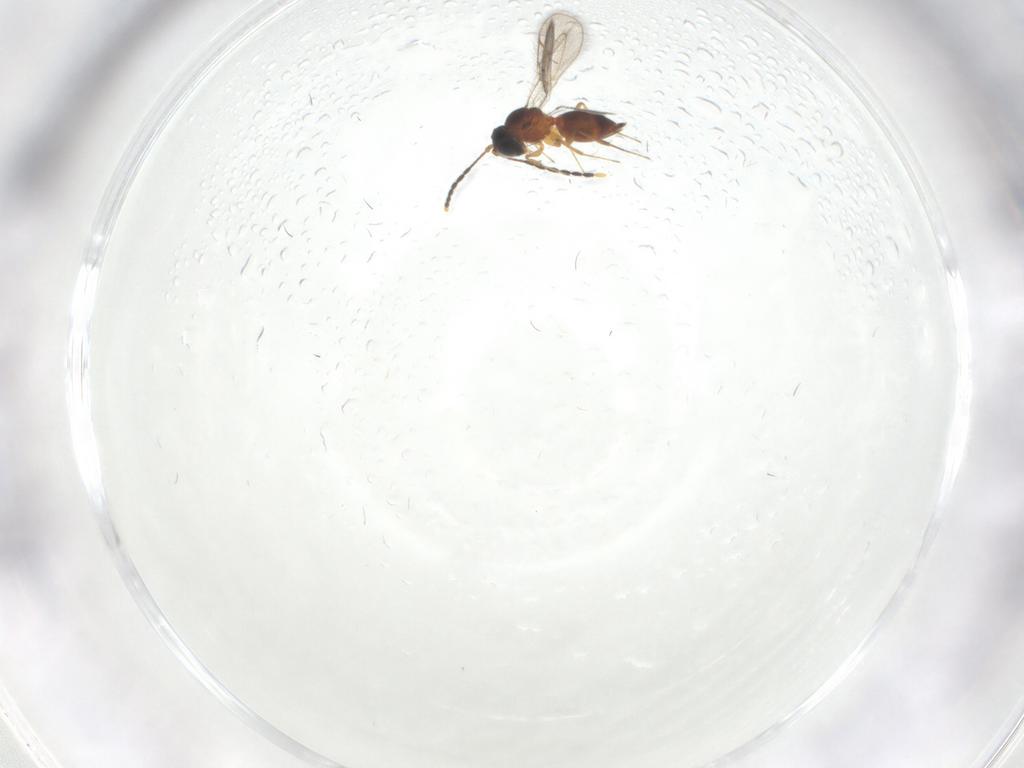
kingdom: Animalia
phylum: Arthropoda
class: Insecta
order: Hymenoptera
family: Figitidae
